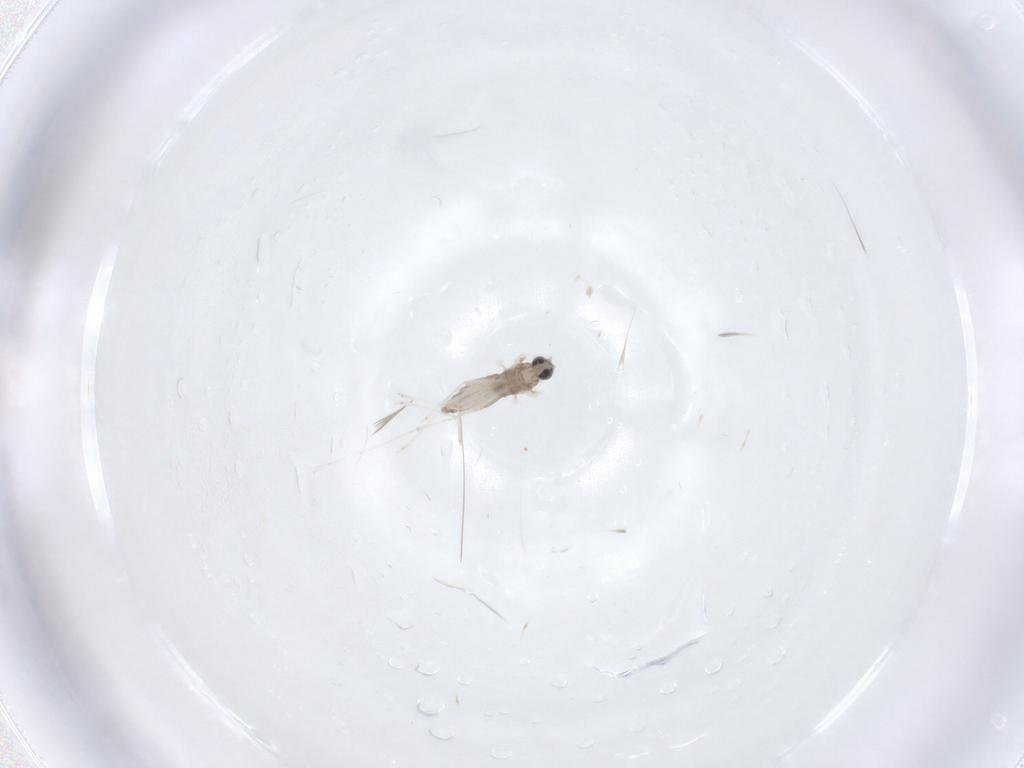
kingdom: Animalia
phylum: Arthropoda
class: Insecta
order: Diptera
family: Cecidomyiidae
